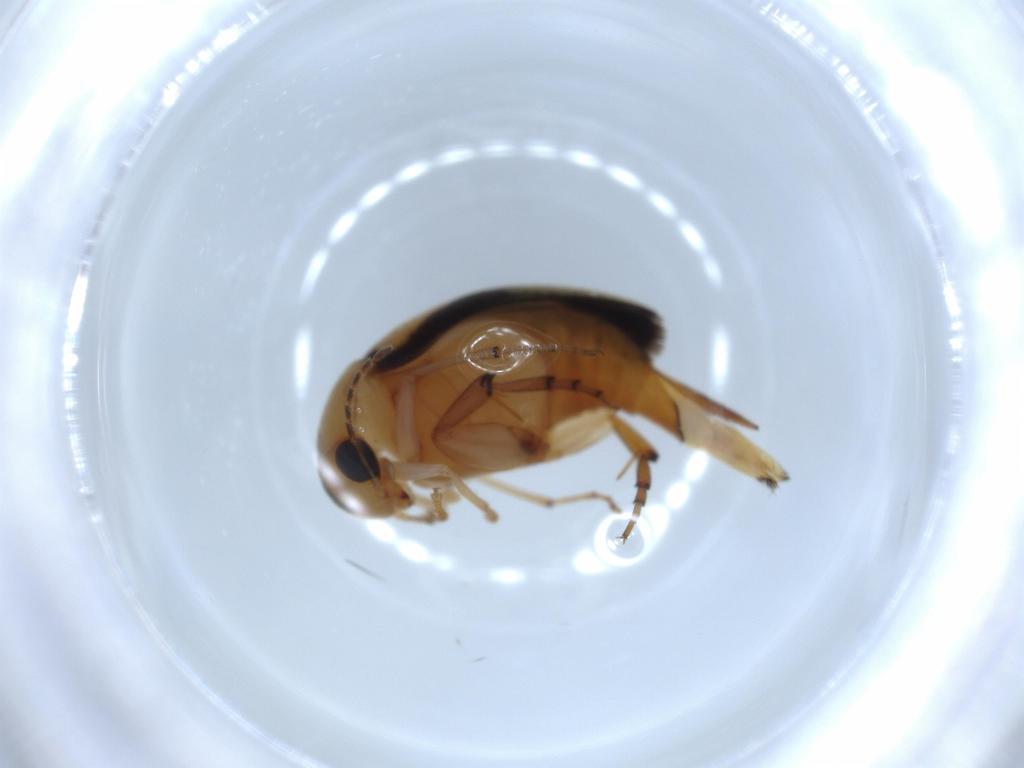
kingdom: Animalia
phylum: Arthropoda
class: Insecta
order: Coleoptera
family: Mordellidae
